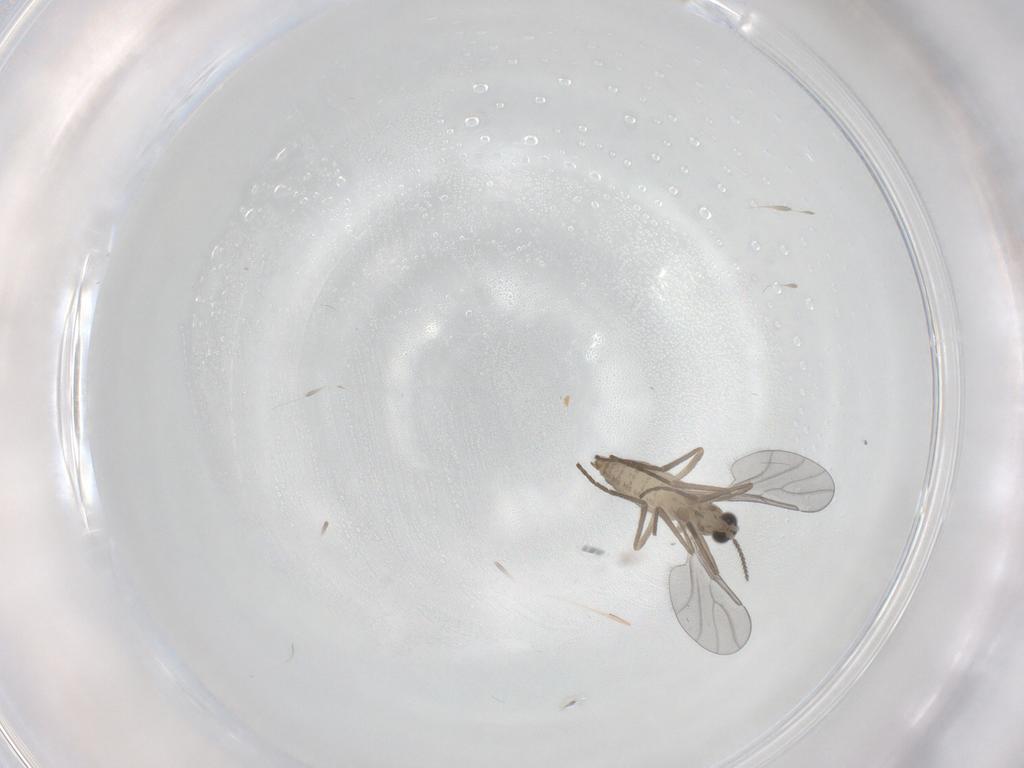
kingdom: Animalia
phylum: Arthropoda
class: Insecta
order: Diptera
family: Cecidomyiidae
